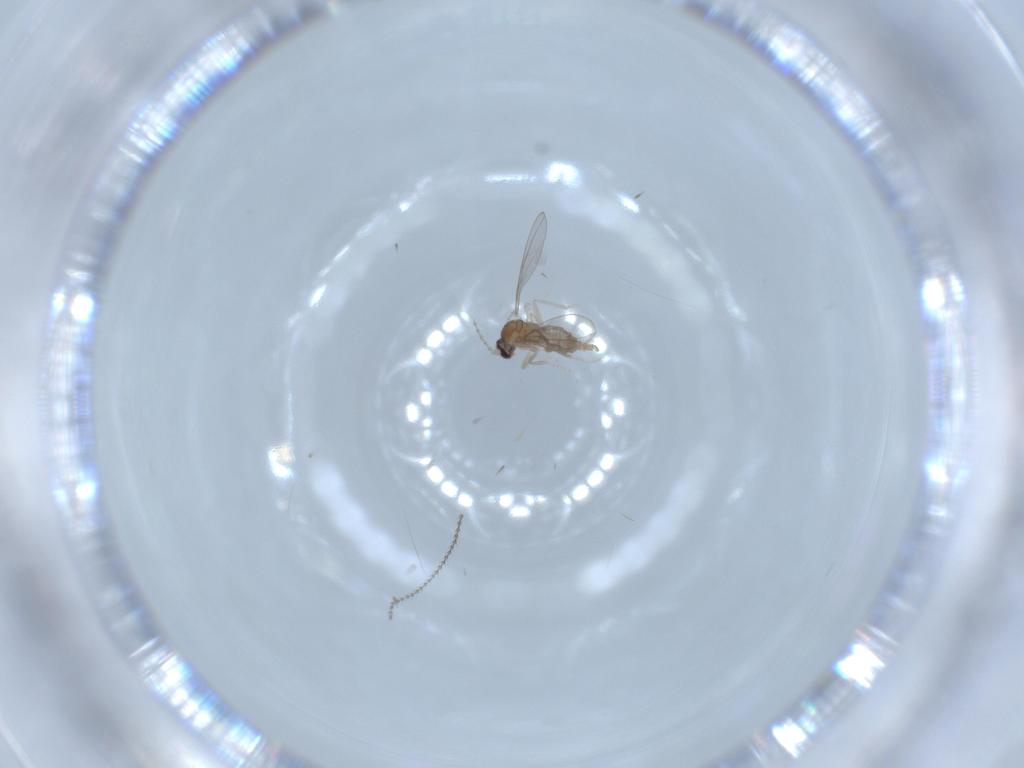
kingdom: Animalia
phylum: Arthropoda
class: Insecta
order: Diptera
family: Cecidomyiidae
